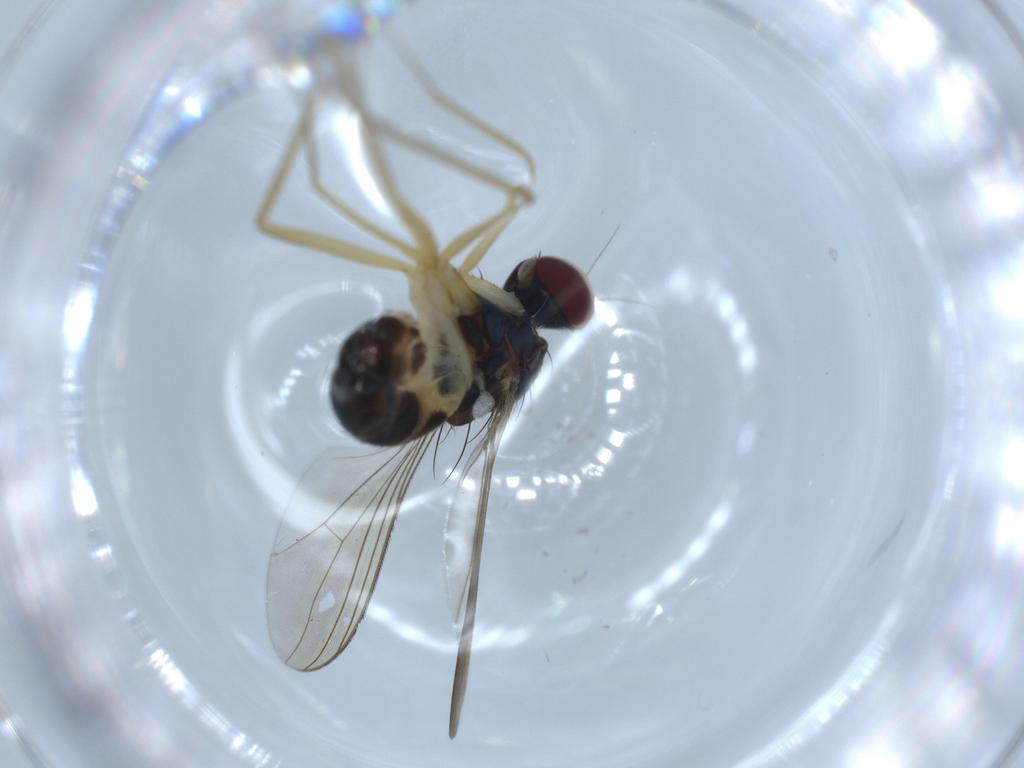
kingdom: Animalia
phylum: Arthropoda
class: Insecta
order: Diptera
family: Dolichopodidae
